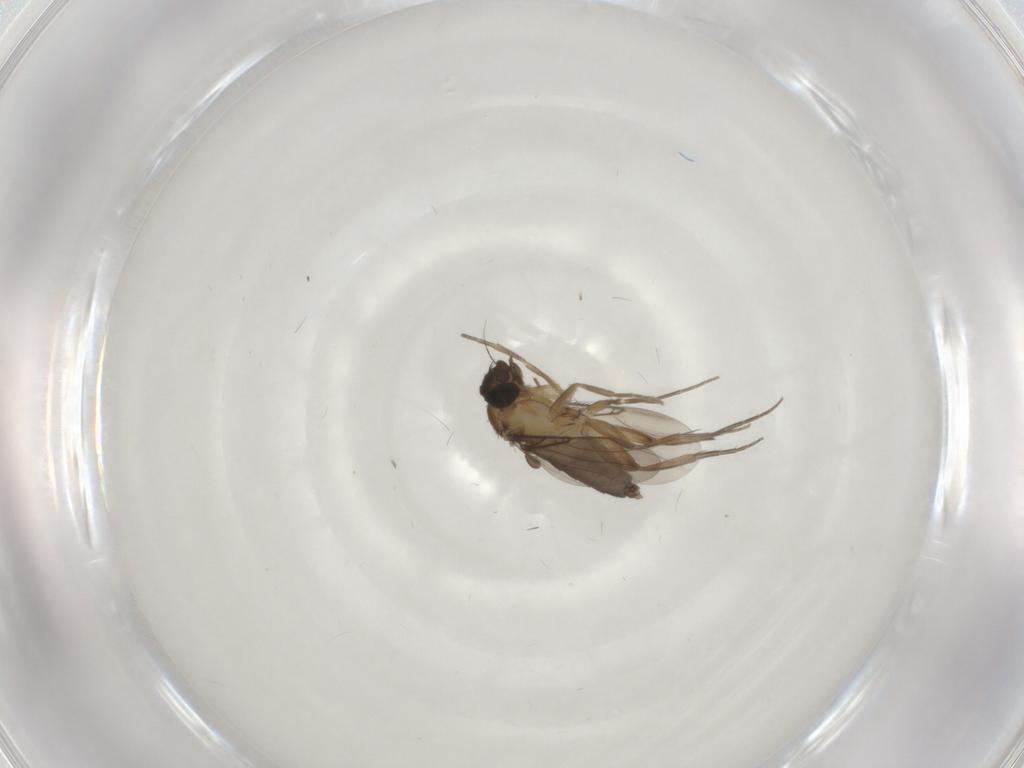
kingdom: Animalia
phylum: Arthropoda
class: Insecta
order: Diptera
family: Phoridae
